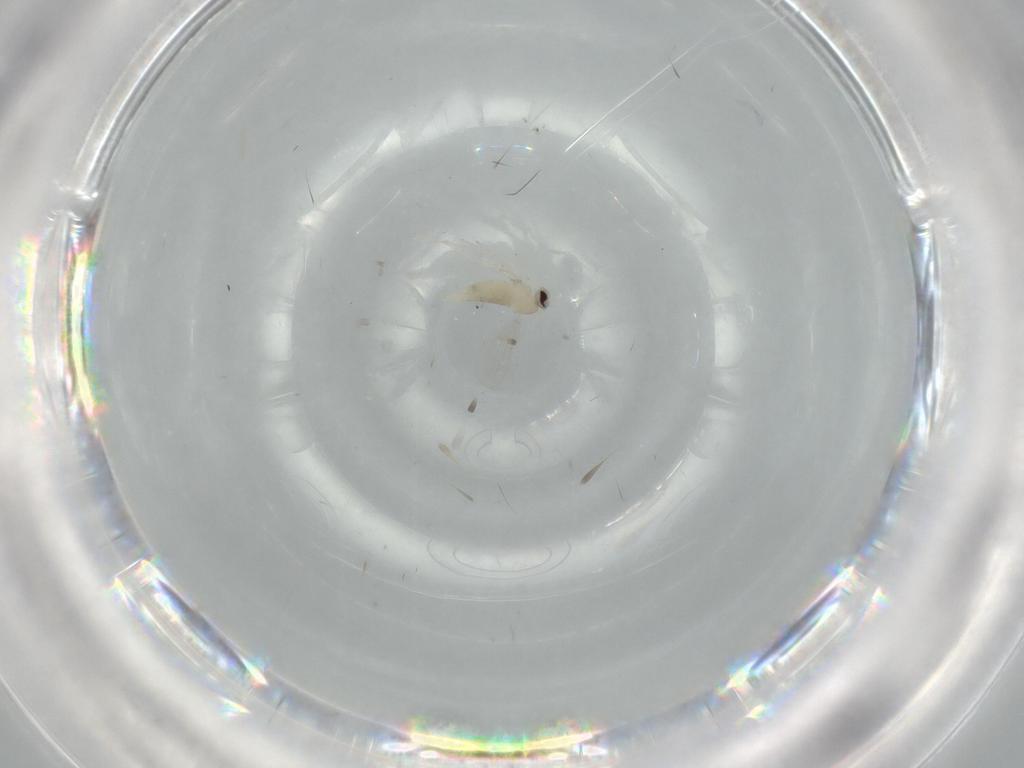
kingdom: Animalia
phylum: Arthropoda
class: Insecta
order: Diptera
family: Cecidomyiidae
